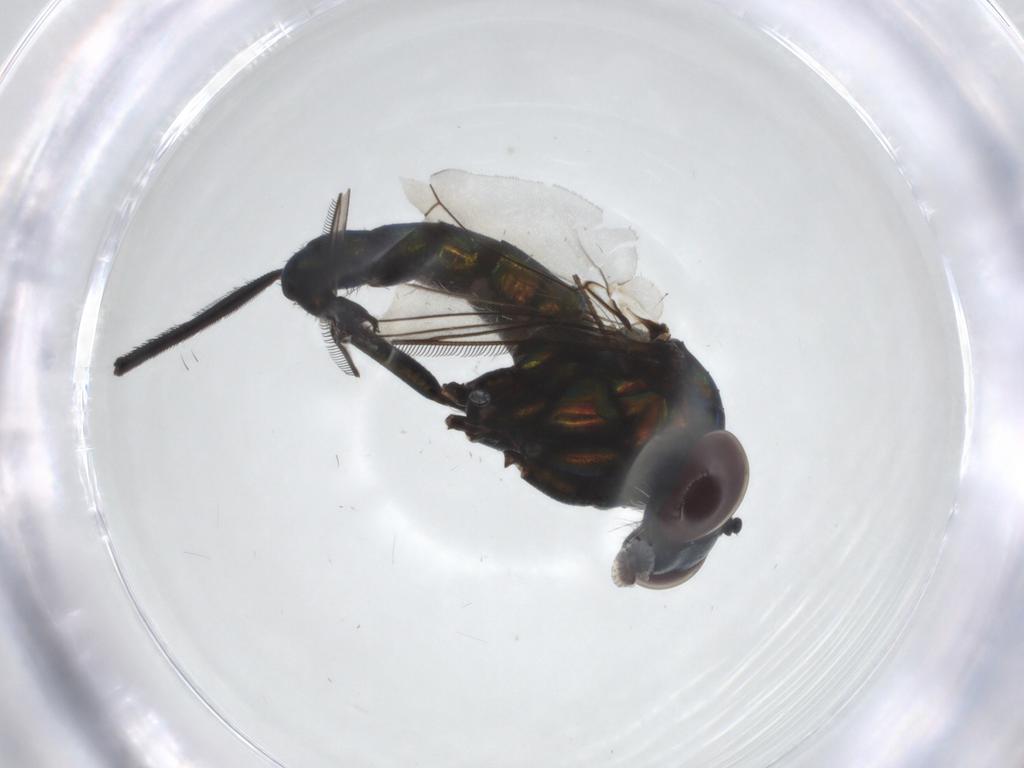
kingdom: Animalia
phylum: Arthropoda
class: Insecta
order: Diptera
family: Dolichopodidae
